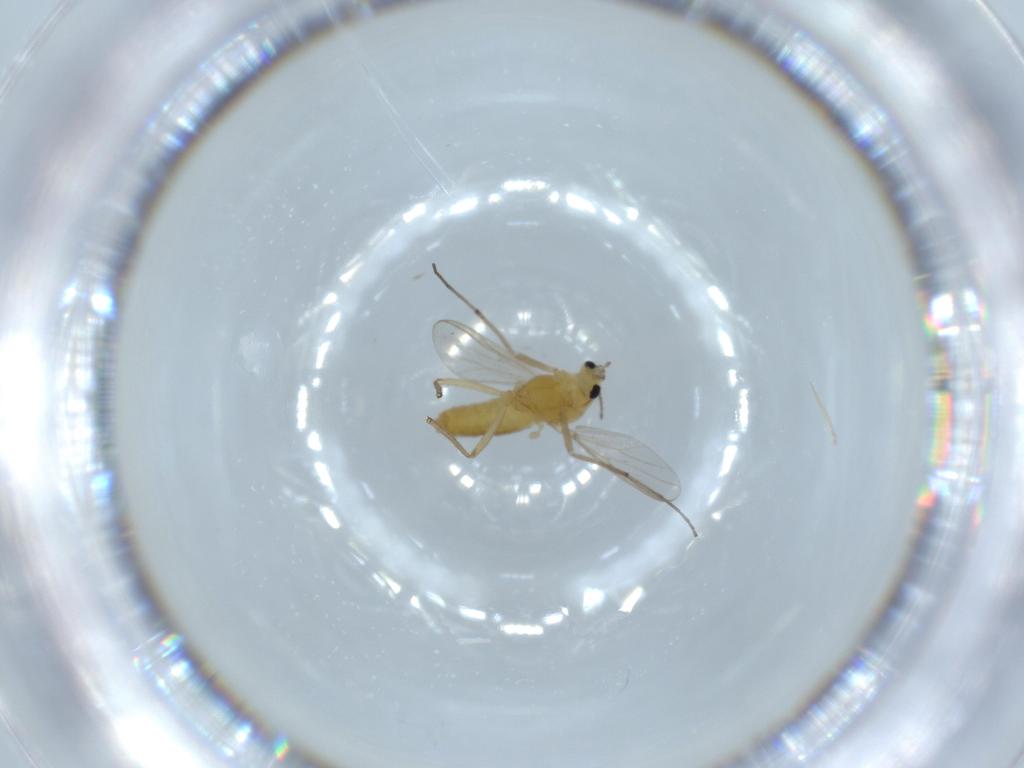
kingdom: Animalia
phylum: Arthropoda
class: Insecta
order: Diptera
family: Chironomidae
